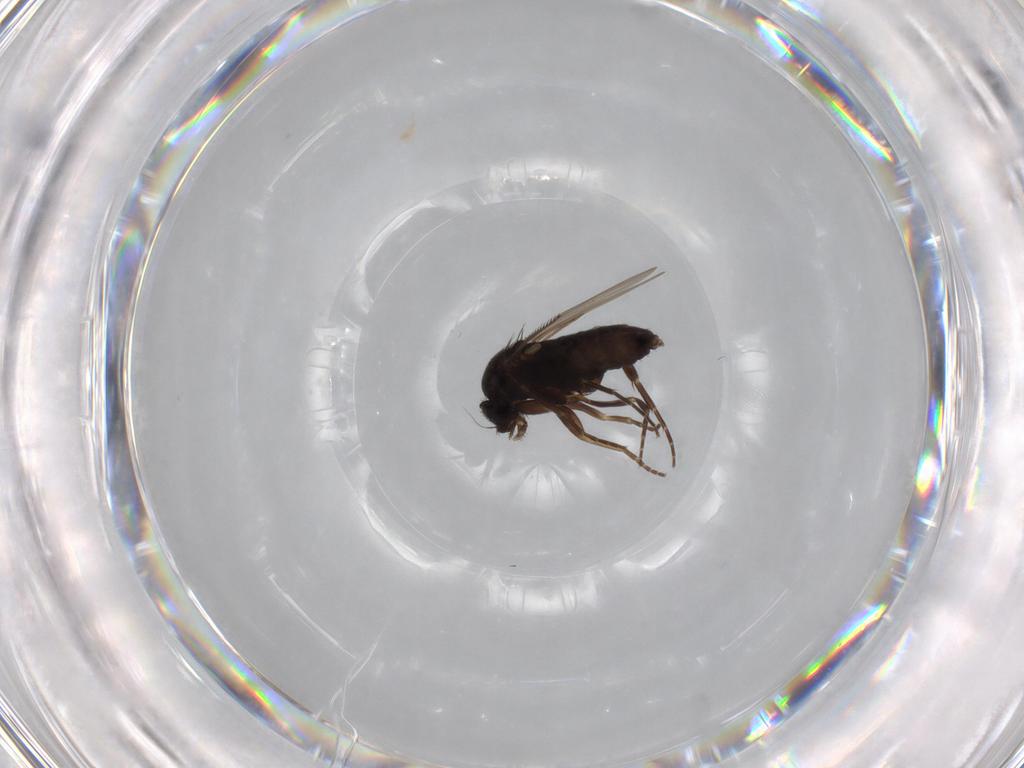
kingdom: Animalia
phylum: Arthropoda
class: Insecta
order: Diptera
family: Phoridae
